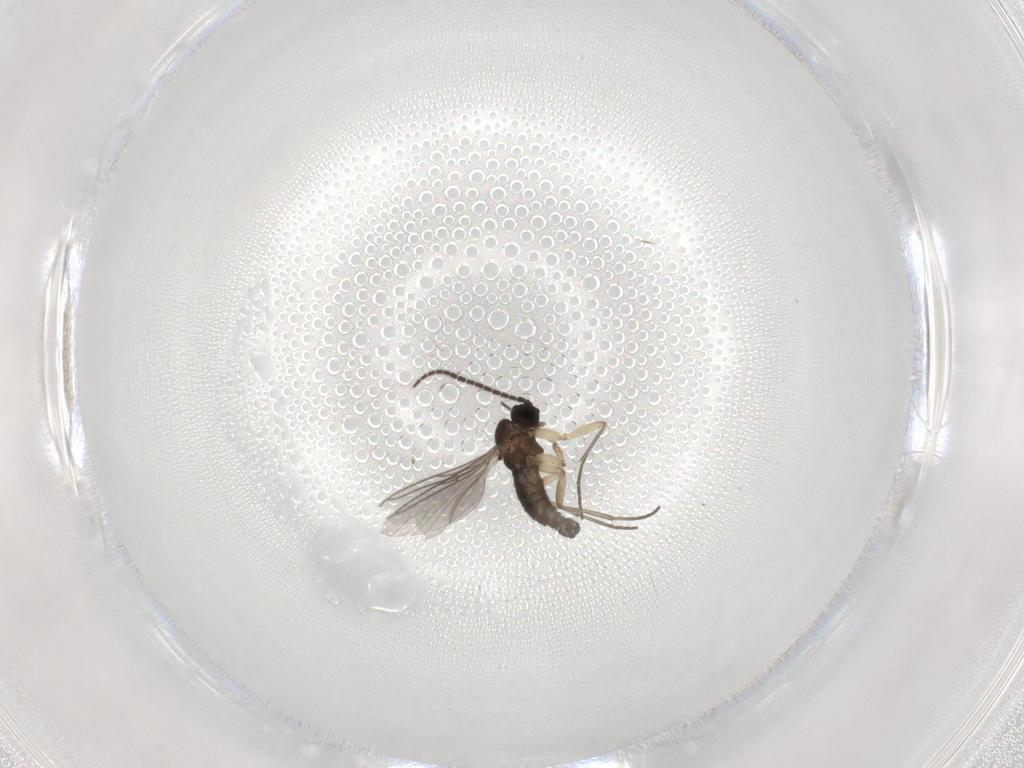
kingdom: Animalia
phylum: Arthropoda
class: Insecta
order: Diptera
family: Sciaridae
